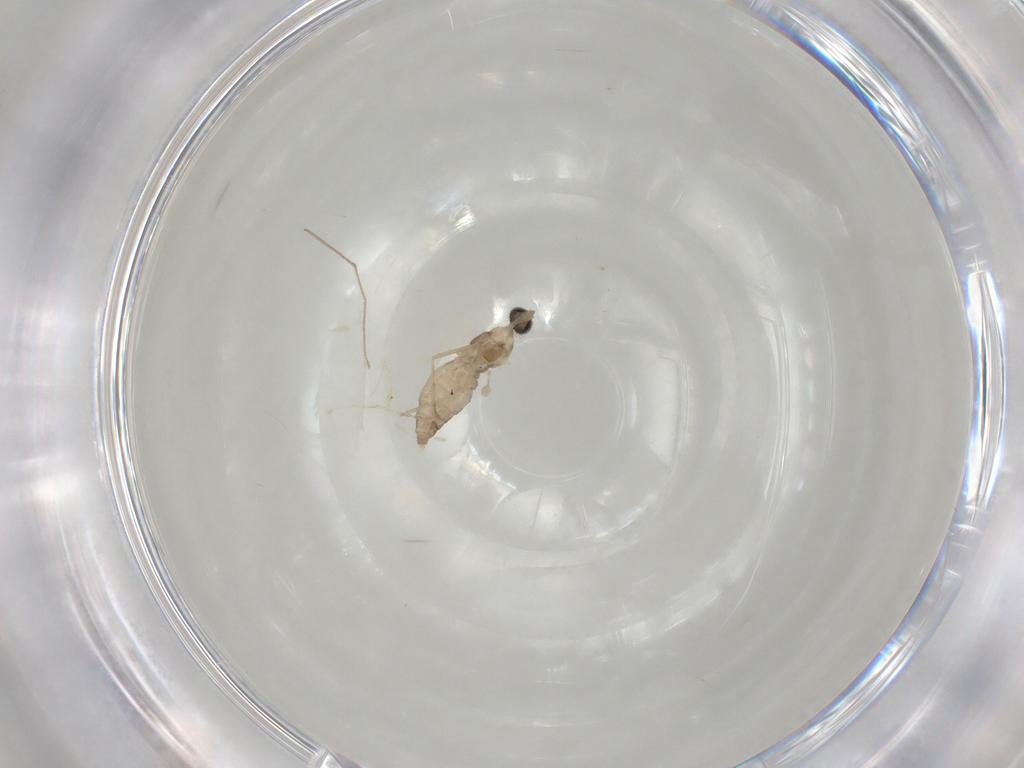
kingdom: Animalia
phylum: Arthropoda
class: Insecta
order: Diptera
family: Cecidomyiidae
